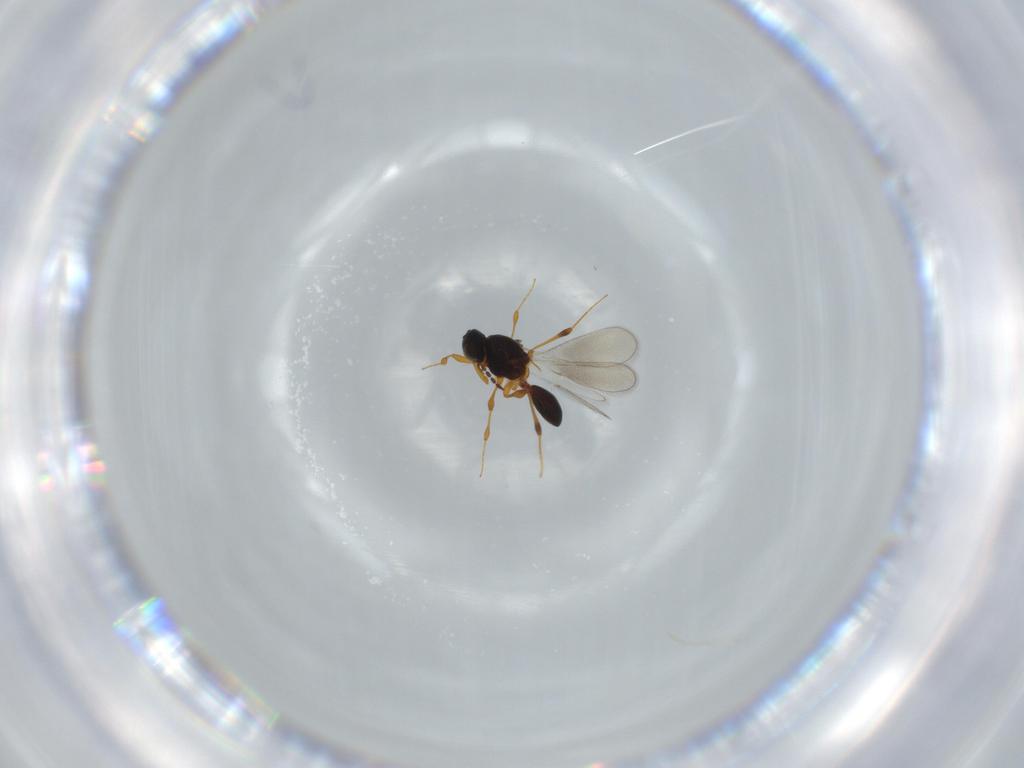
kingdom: Animalia
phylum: Arthropoda
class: Insecta
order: Hymenoptera
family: Platygastridae
